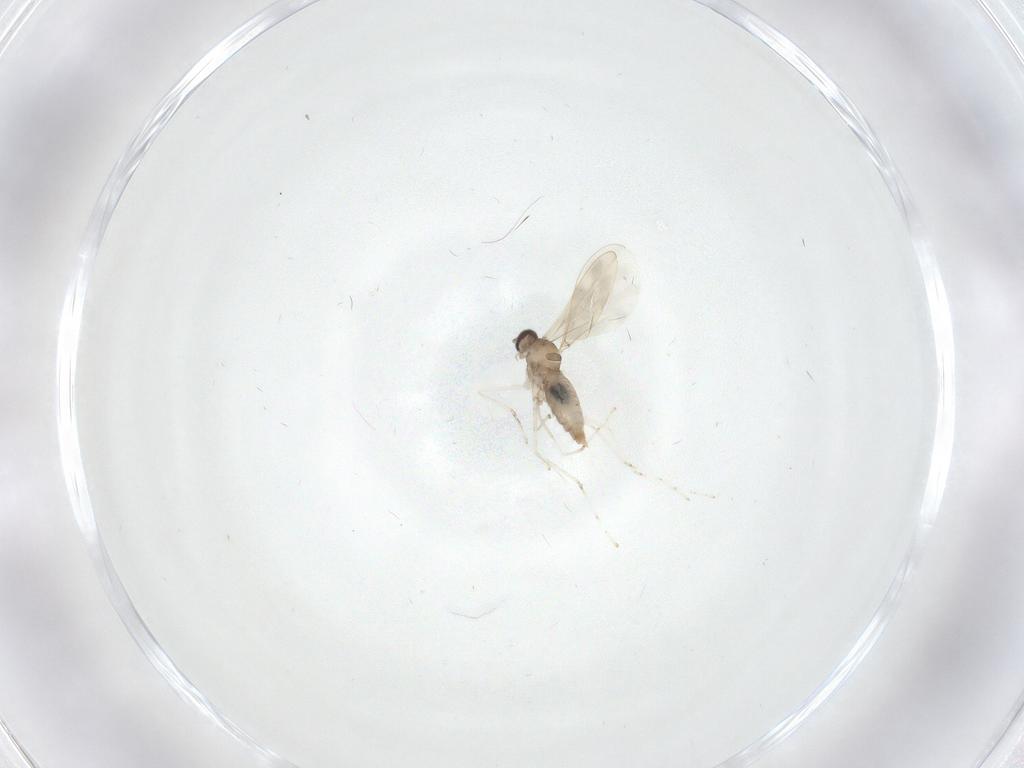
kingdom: Animalia
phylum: Arthropoda
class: Insecta
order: Diptera
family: Cecidomyiidae
